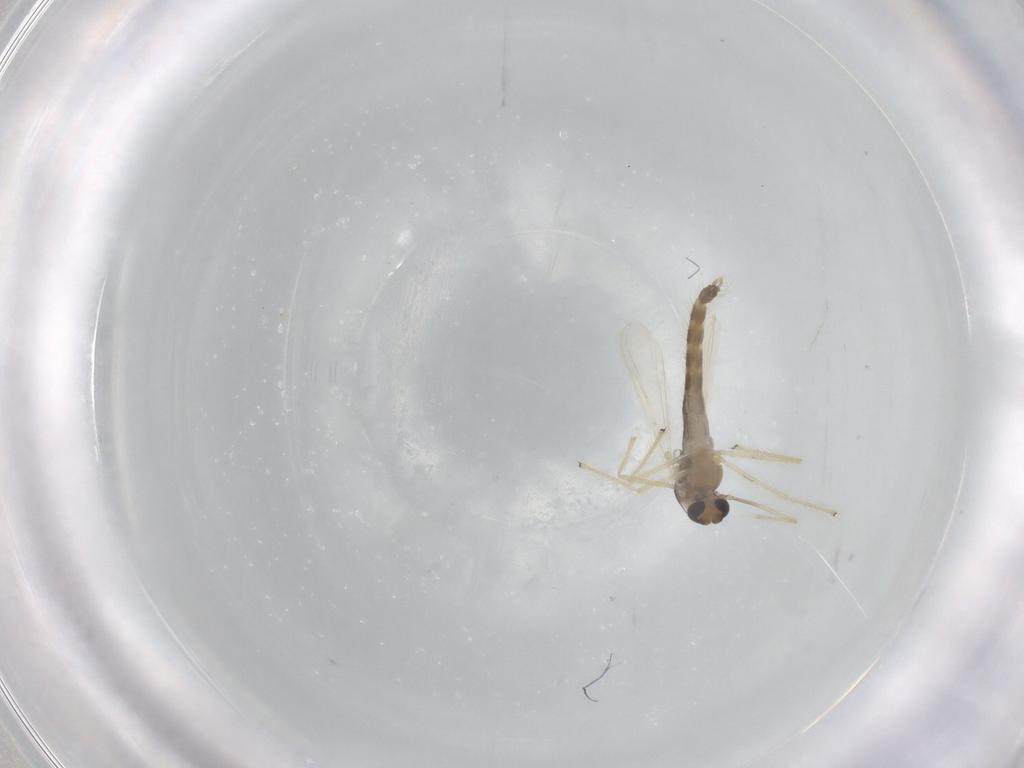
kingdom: Animalia
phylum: Arthropoda
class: Insecta
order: Diptera
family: Chironomidae
